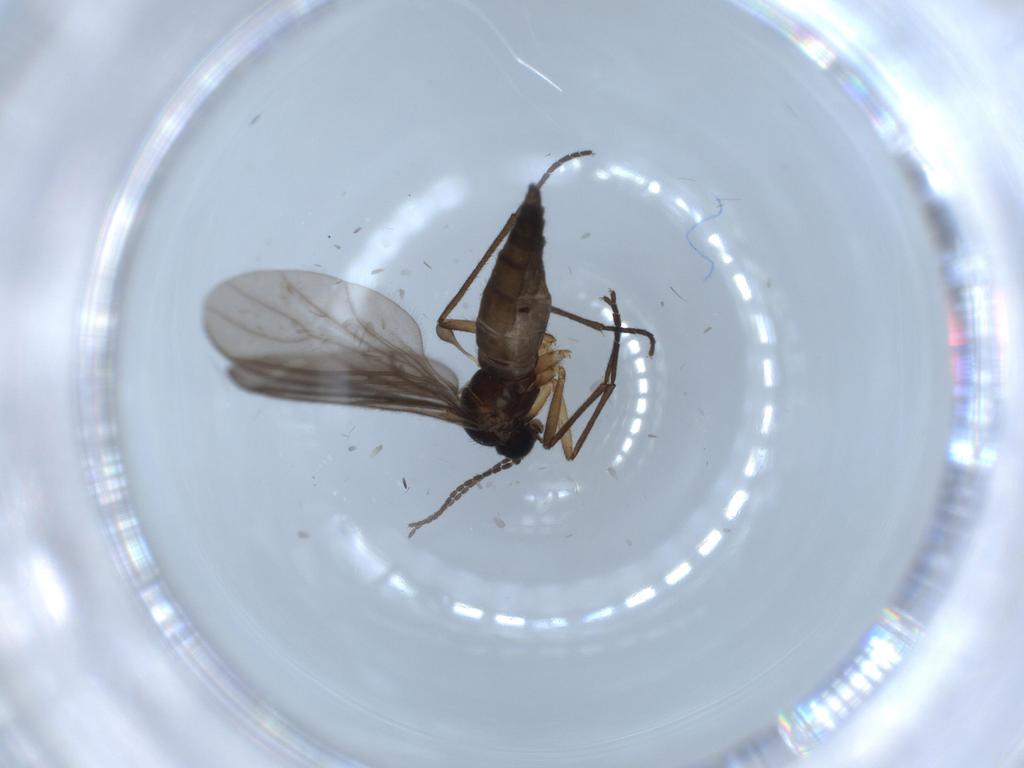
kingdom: Animalia
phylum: Arthropoda
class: Insecta
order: Diptera
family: Sciaridae
